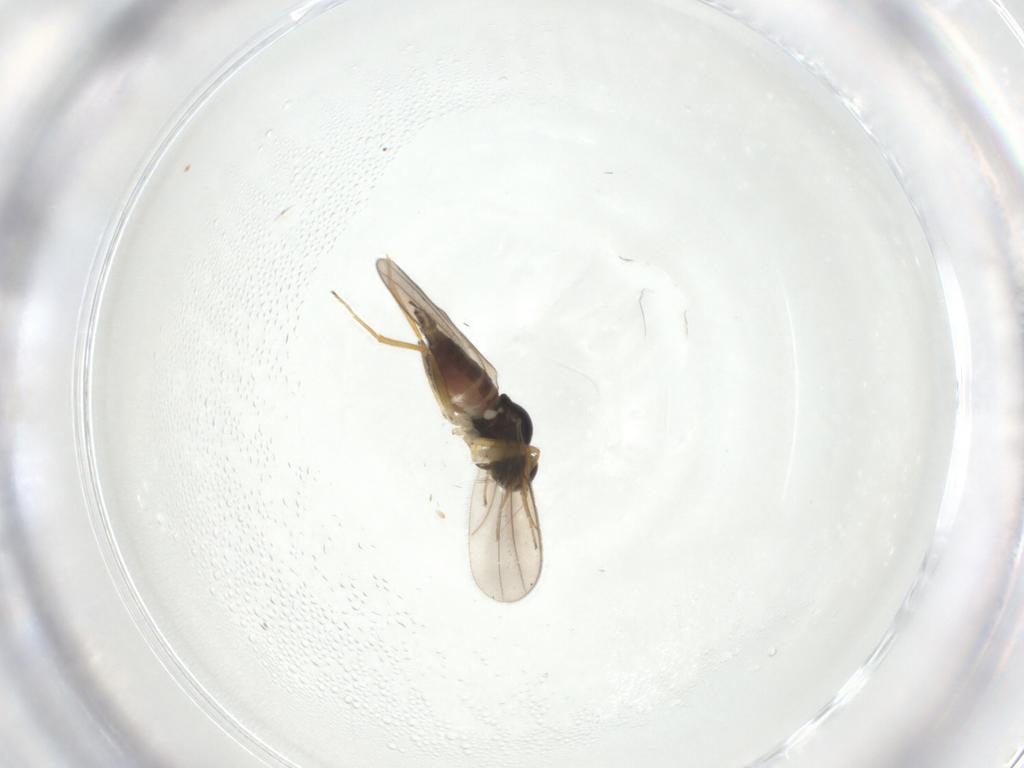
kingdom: Animalia
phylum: Arthropoda
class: Insecta
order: Diptera
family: Hybotidae
